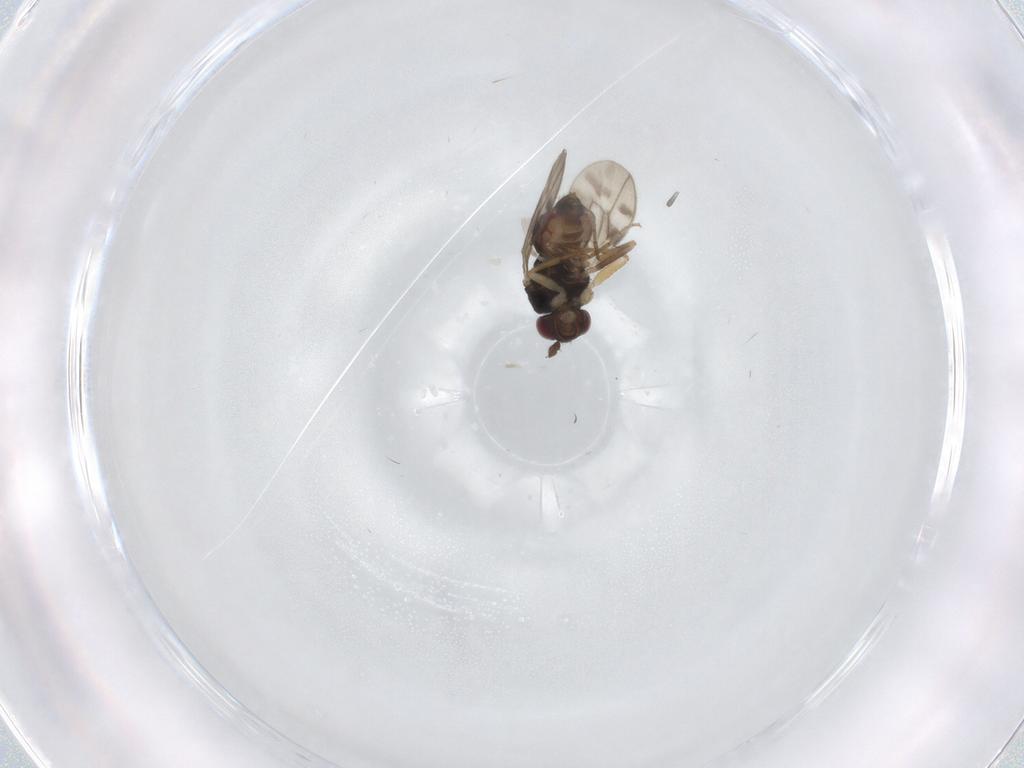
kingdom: Animalia
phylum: Arthropoda
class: Insecta
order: Diptera
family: Sphaeroceridae
